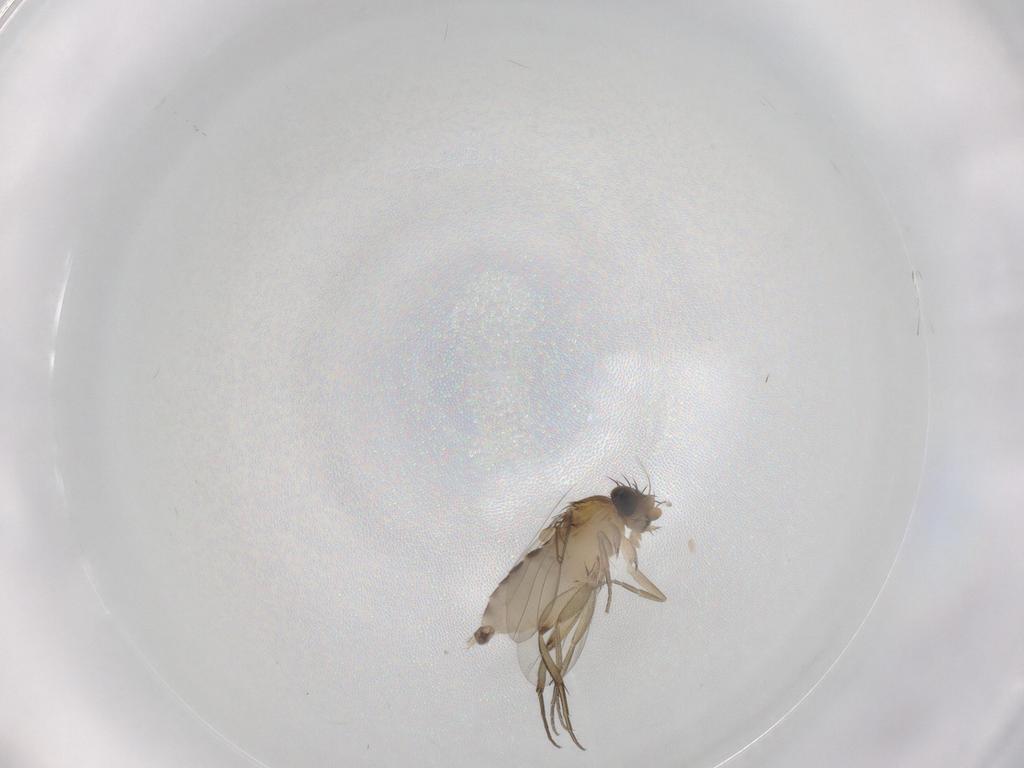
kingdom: Animalia
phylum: Arthropoda
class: Insecta
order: Diptera
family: Phoridae
